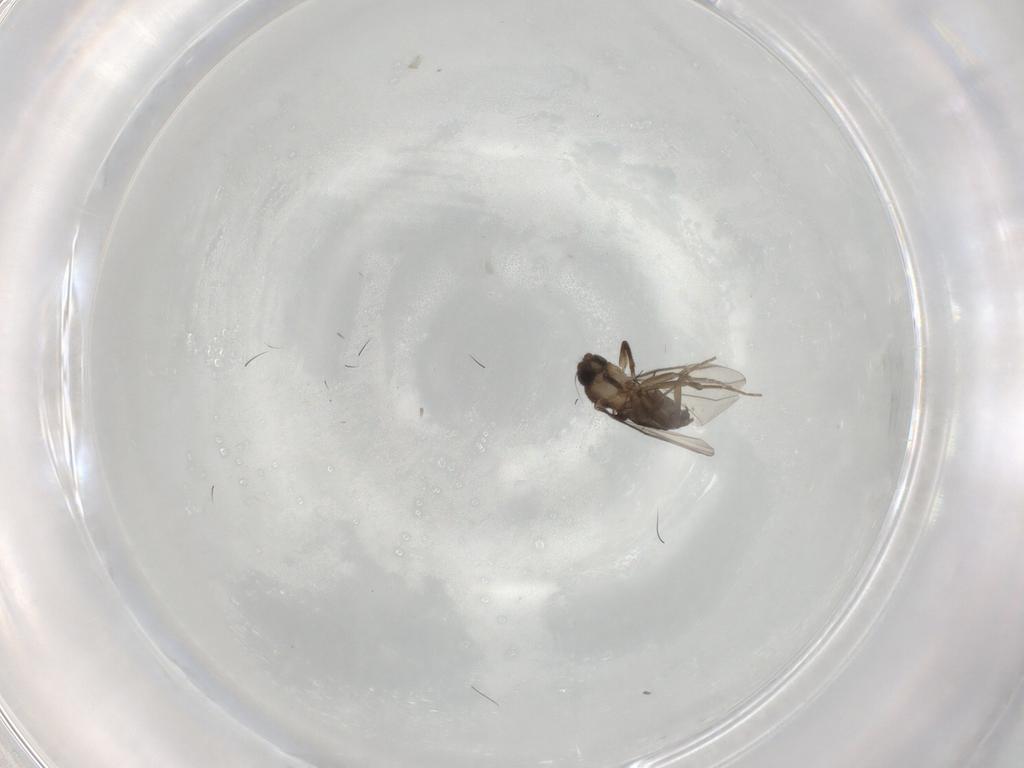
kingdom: Animalia
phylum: Arthropoda
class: Insecta
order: Diptera
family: Phoridae
